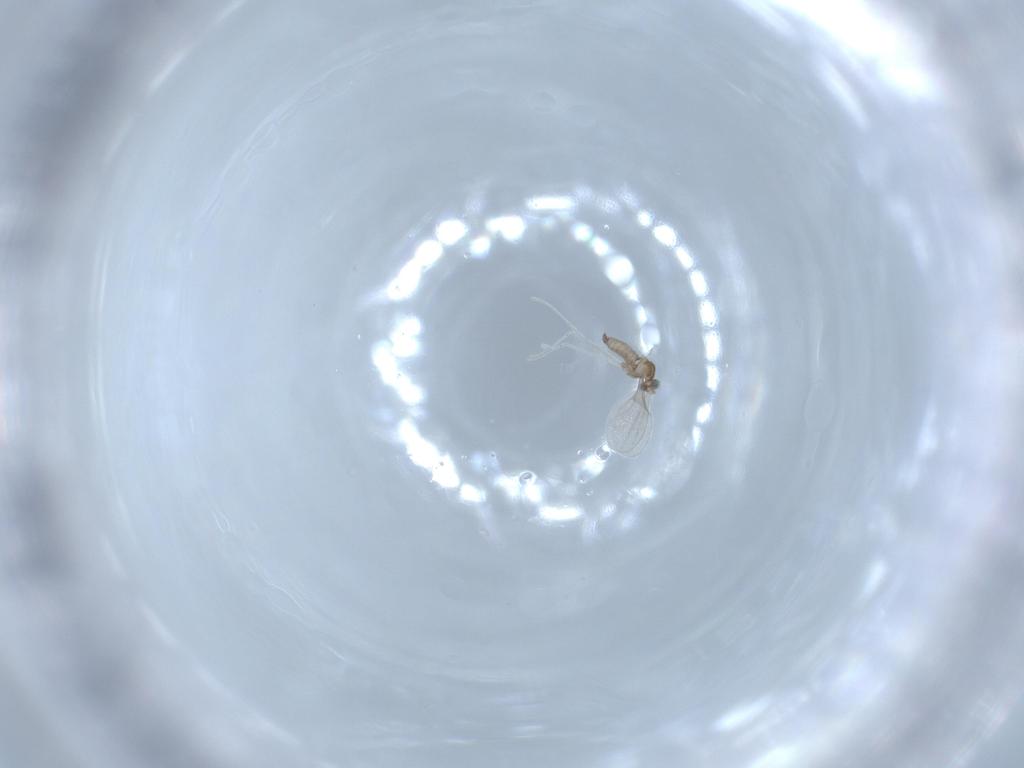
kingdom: Animalia
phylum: Arthropoda
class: Insecta
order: Diptera
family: Cecidomyiidae
